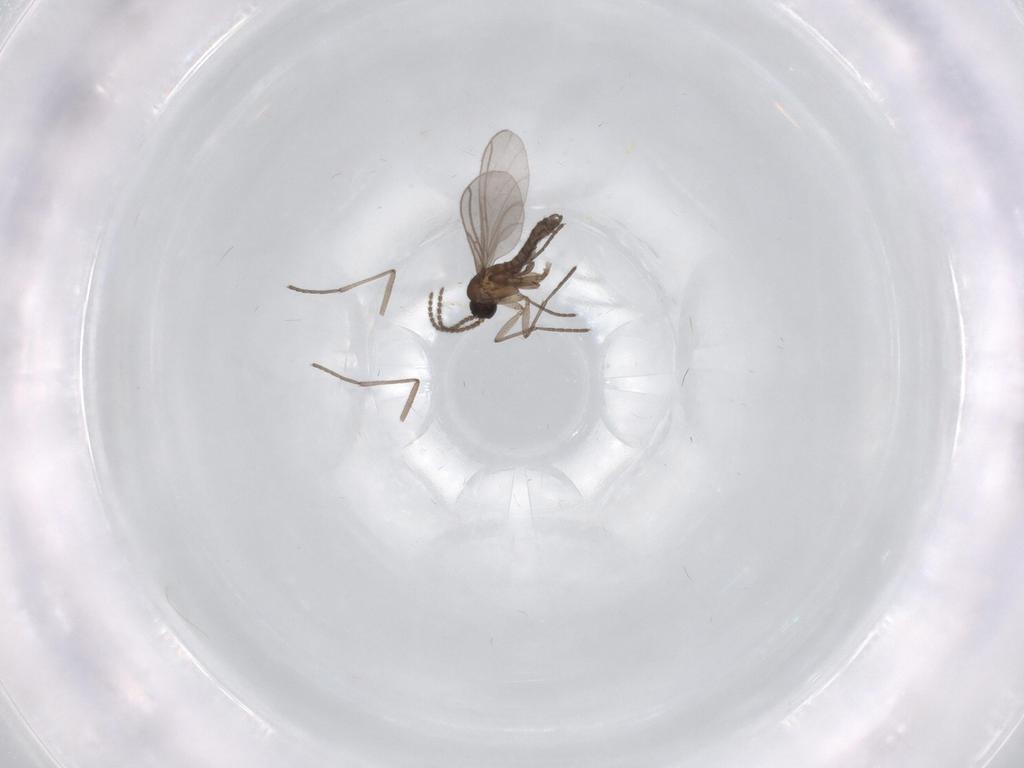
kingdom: Animalia
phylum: Arthropoda
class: Insecta
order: Diptera
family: Limoniidae
